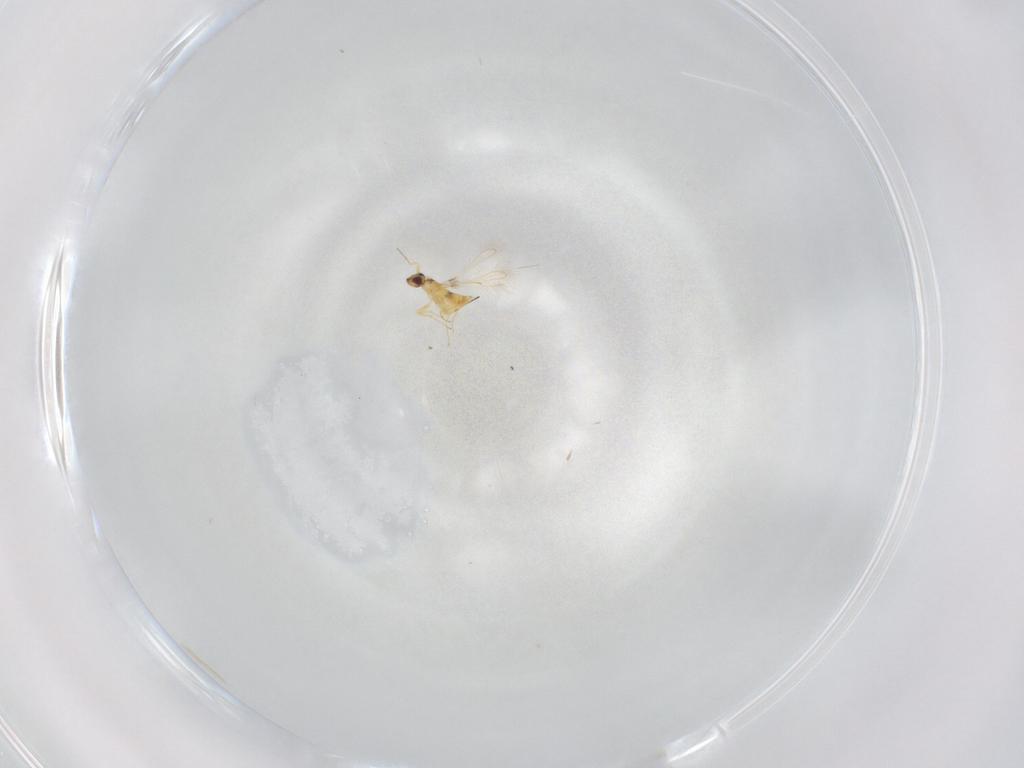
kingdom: Animalia
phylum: Arthropoda
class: Insecta
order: Hymenoptera
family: Mymaridae
